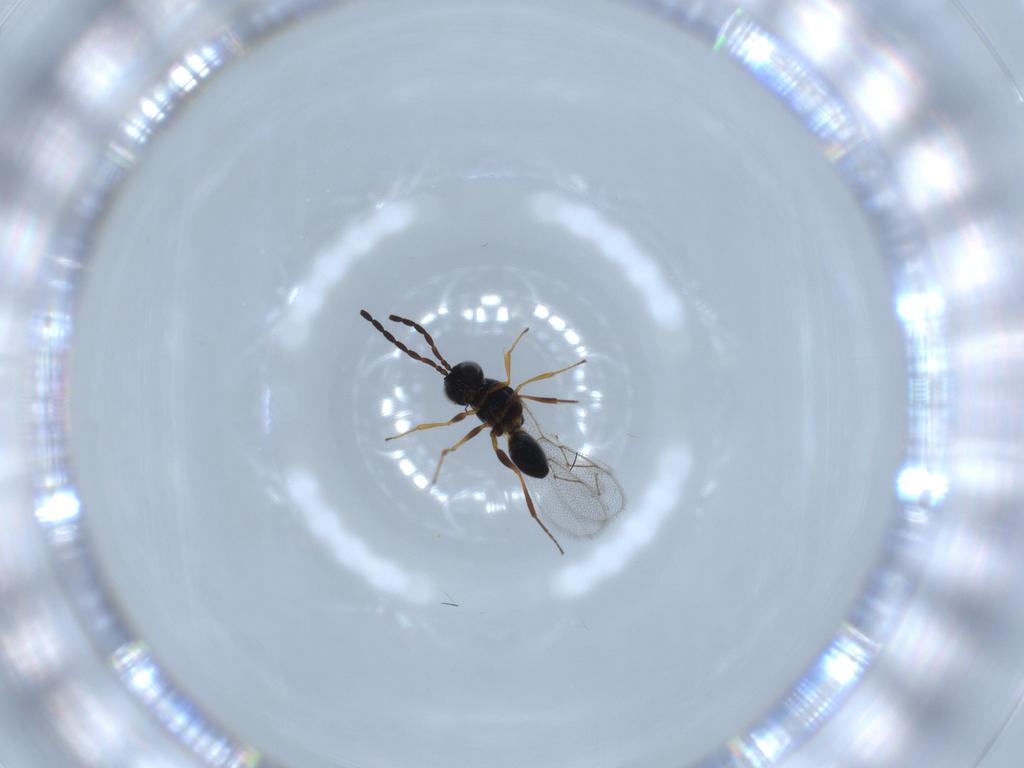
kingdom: Animalia
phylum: Arthropoda
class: Insecta
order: Hymenoptera
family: Figitidae
